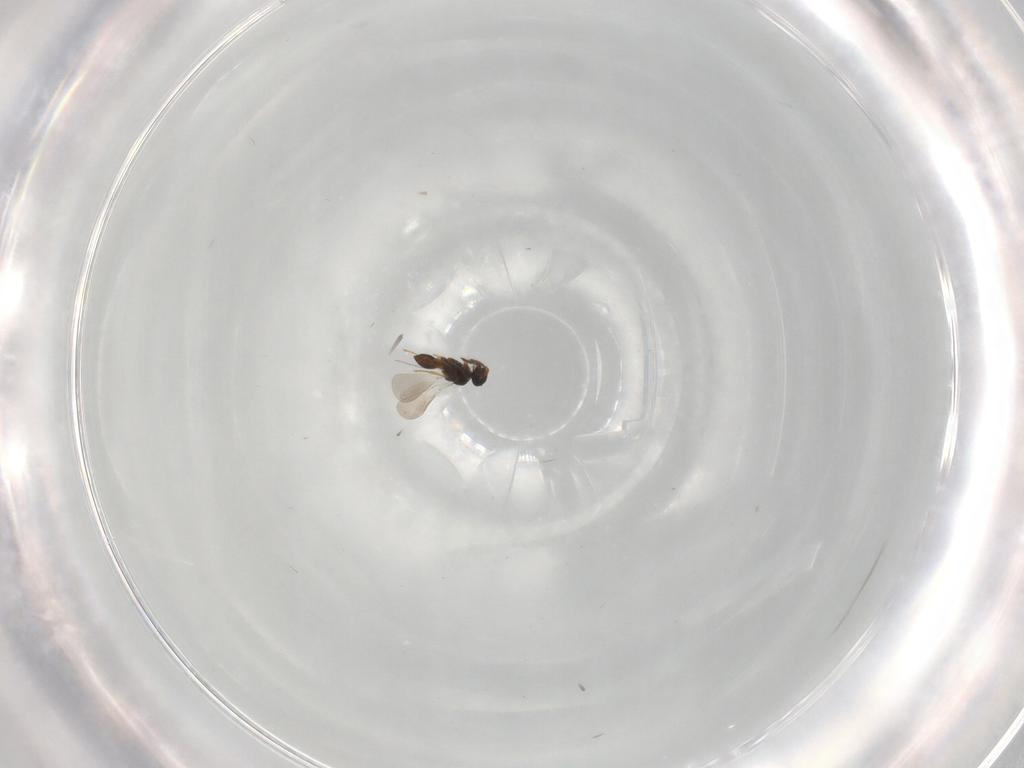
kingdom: Animalia
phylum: Arthropoda
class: Insecta
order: Hymenoptera
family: Platygastridae
